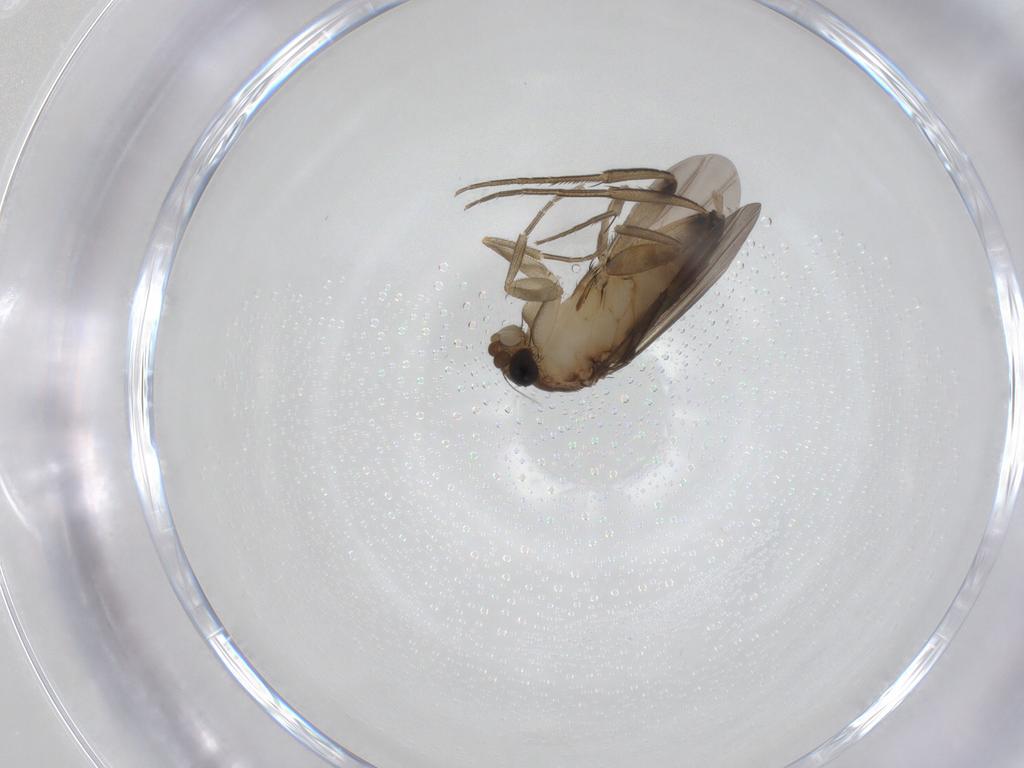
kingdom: Animalia
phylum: Arthropoda
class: Insecta
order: Diptera
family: Phoridae
